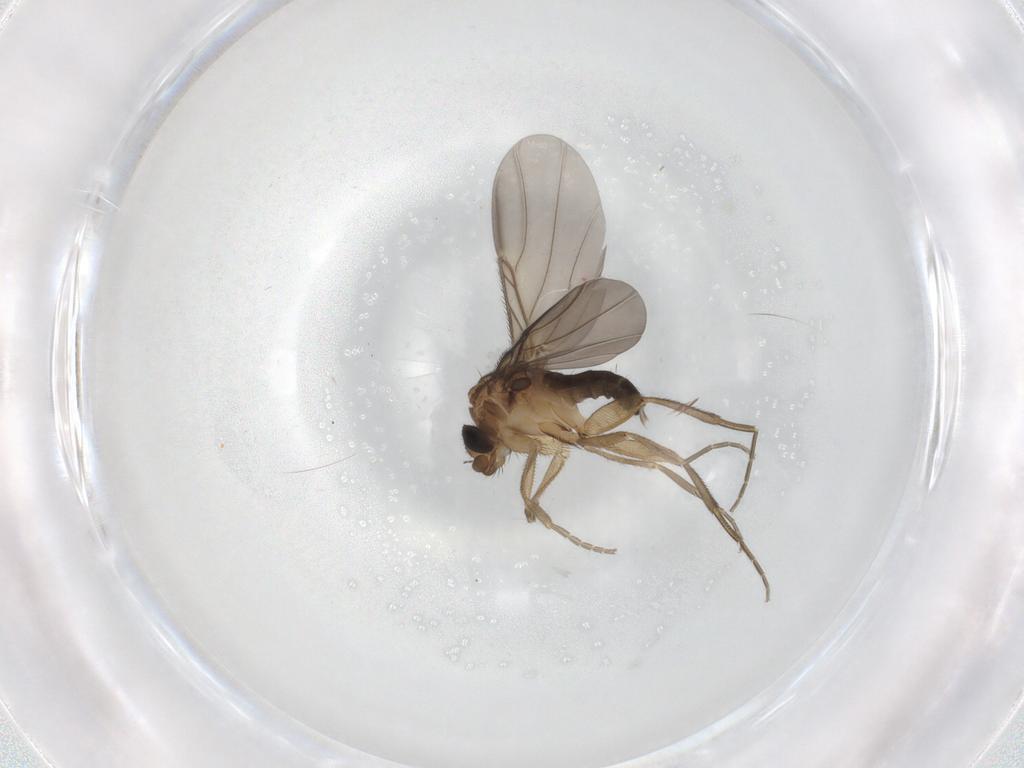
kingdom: Animalia
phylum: Arthropoda
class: Insecta
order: Diptera
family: Phoridae
